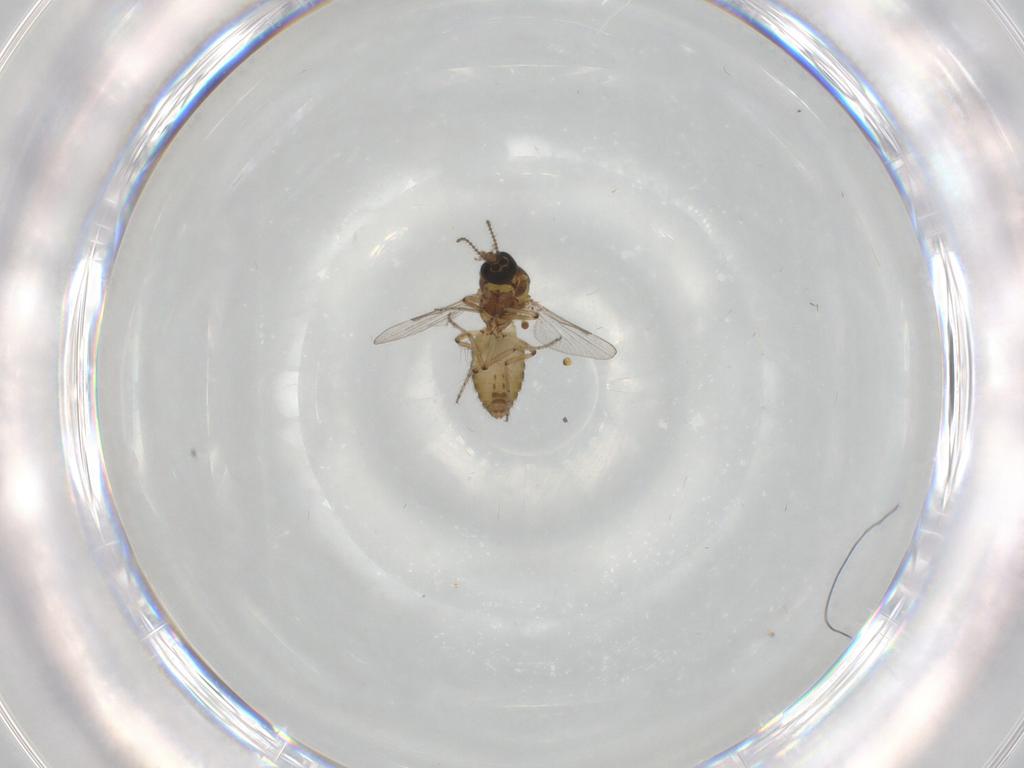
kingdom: Animalia
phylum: Arthropoda
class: Insecta
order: Diptera
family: Ceratopogonidae
